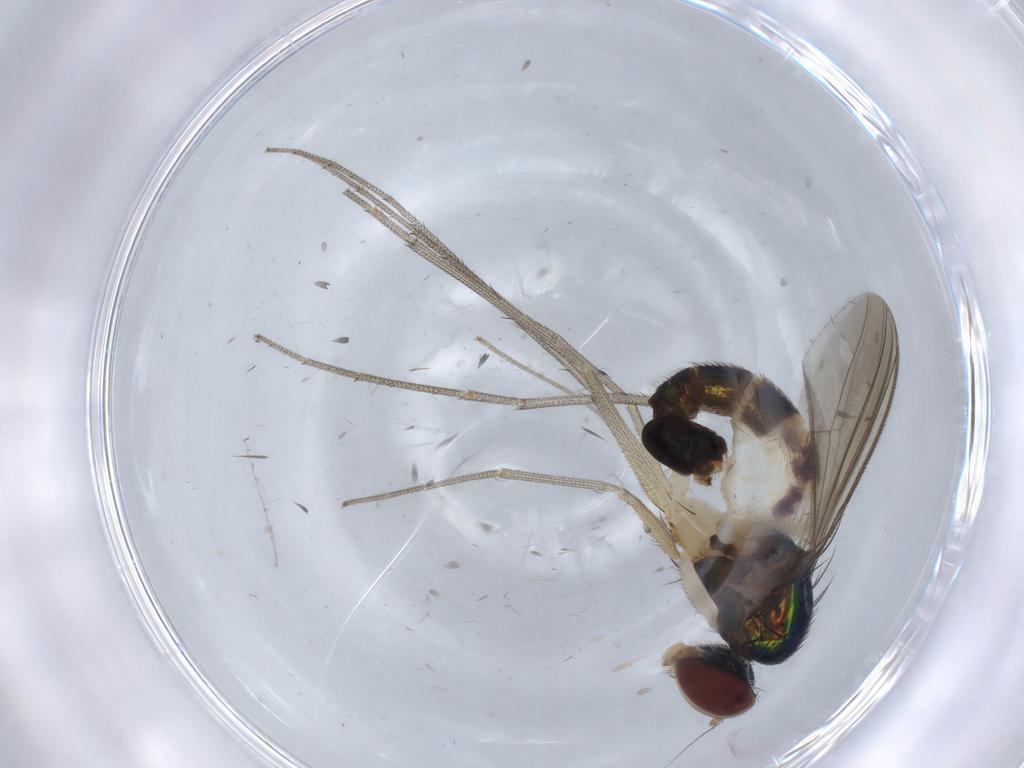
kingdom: Animalia
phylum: Arthropoda
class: Insecta
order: Diptera
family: Dolichopodidae
